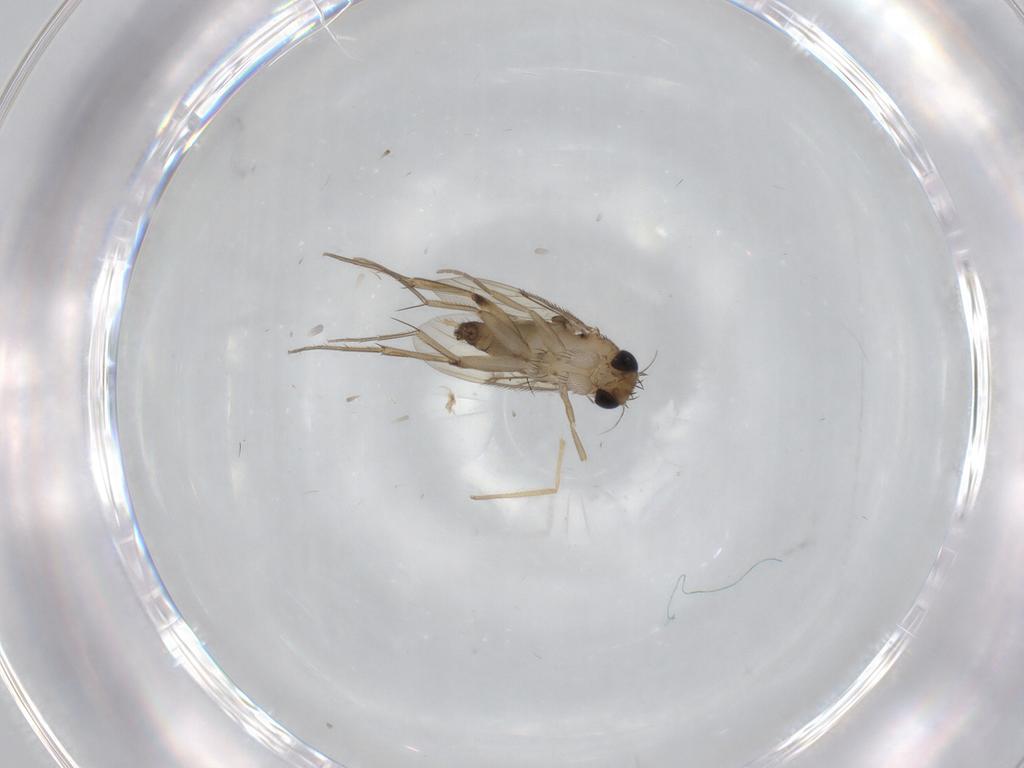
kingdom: Animalia
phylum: Arthropoda
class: Insecta
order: Diptera
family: Phoridae
